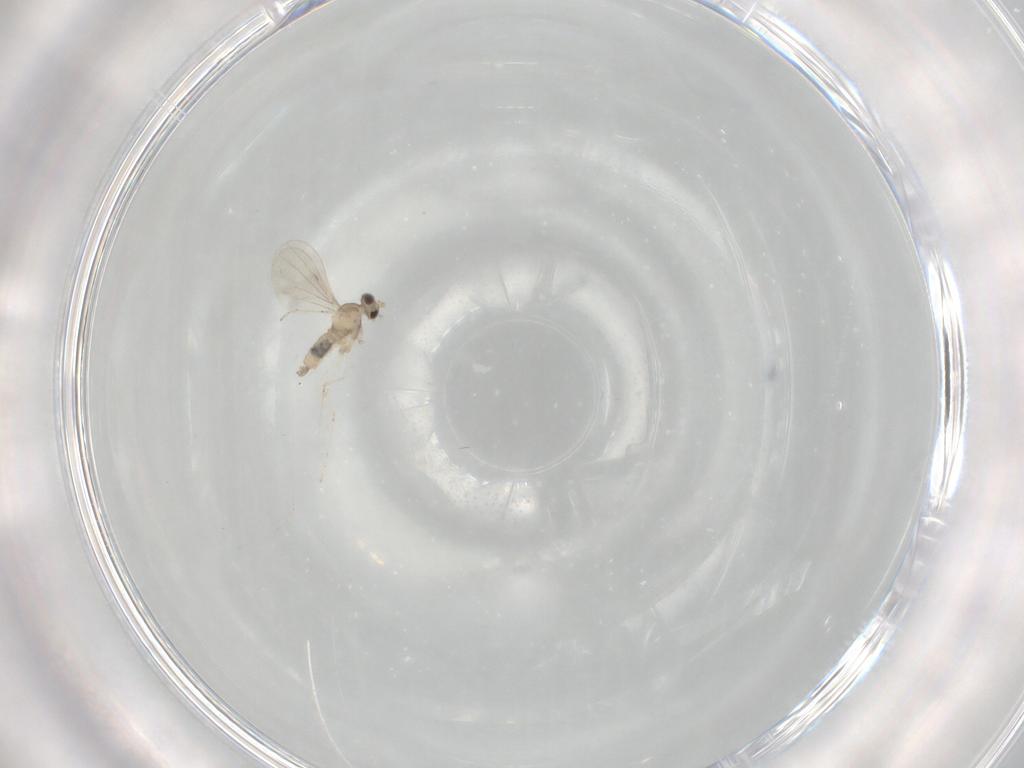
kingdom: Animalia
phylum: Arthropoda
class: Insecta
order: Diptera
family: Cecidomyiidae
